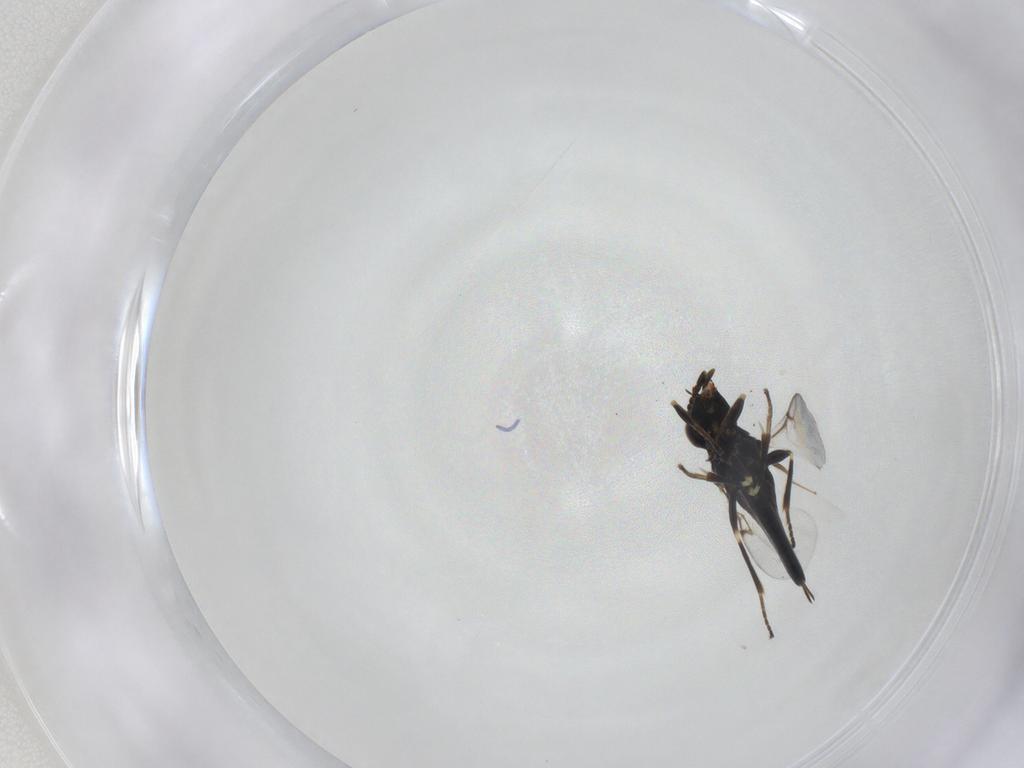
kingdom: Animalia
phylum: Arthropoda
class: Insecta
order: Hymenoptera
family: Encyrtidae
